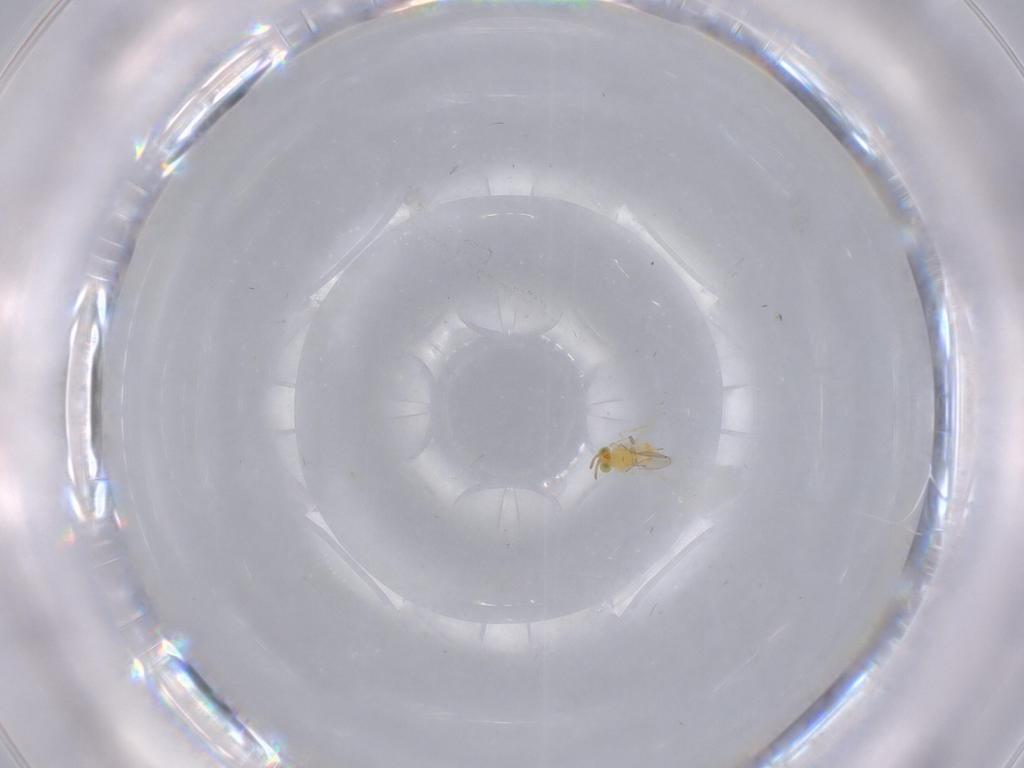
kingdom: Animalia
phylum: Arthropoda
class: Insecta
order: Hymenoptera
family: Aphelinidae
